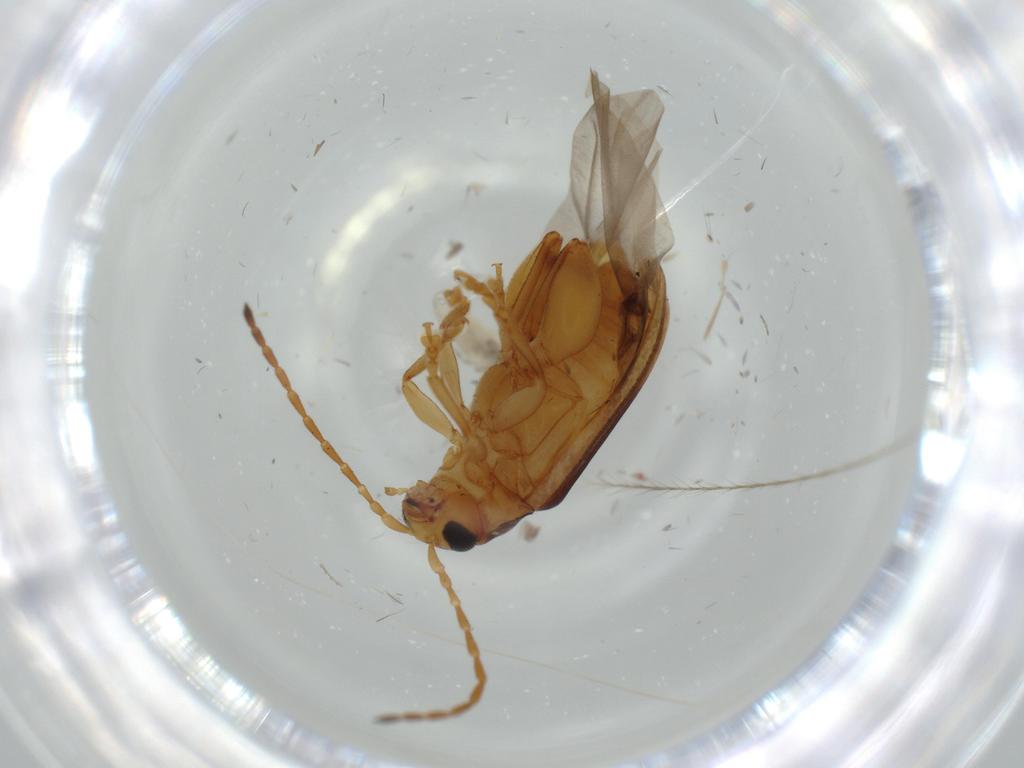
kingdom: Animalia
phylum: Arthropoda
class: Insecta
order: Coleoptera
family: Chrysomelidae
